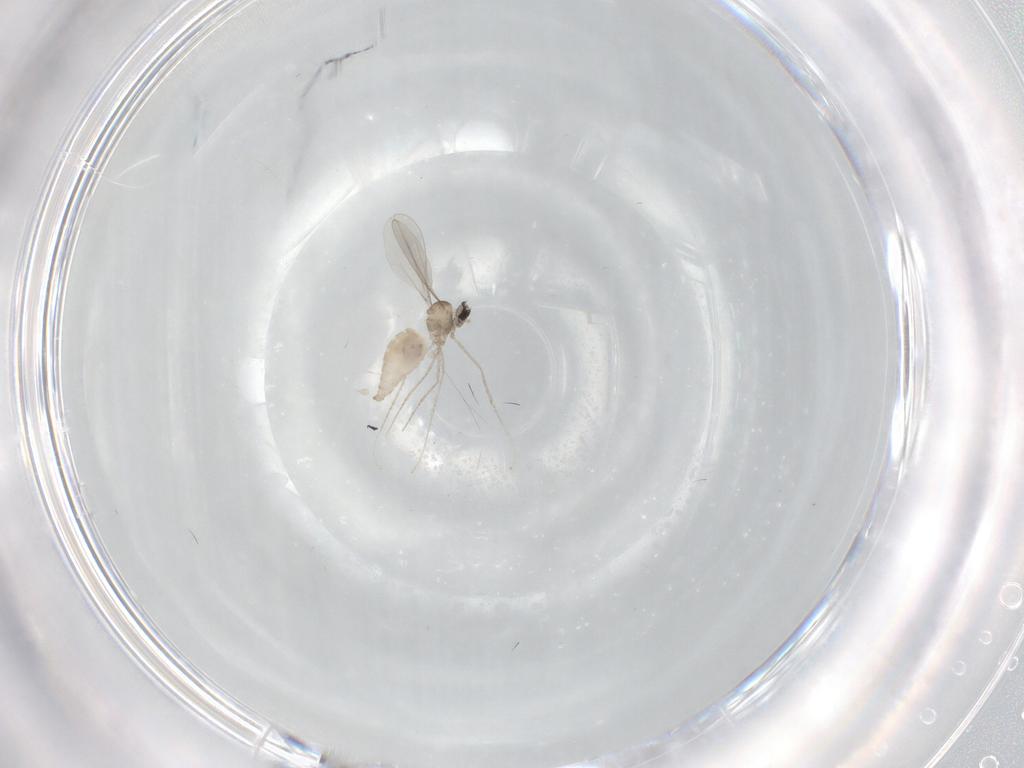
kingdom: Animalia
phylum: Arthropoda
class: Insecta
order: Diptera
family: Cecidomyiidae
